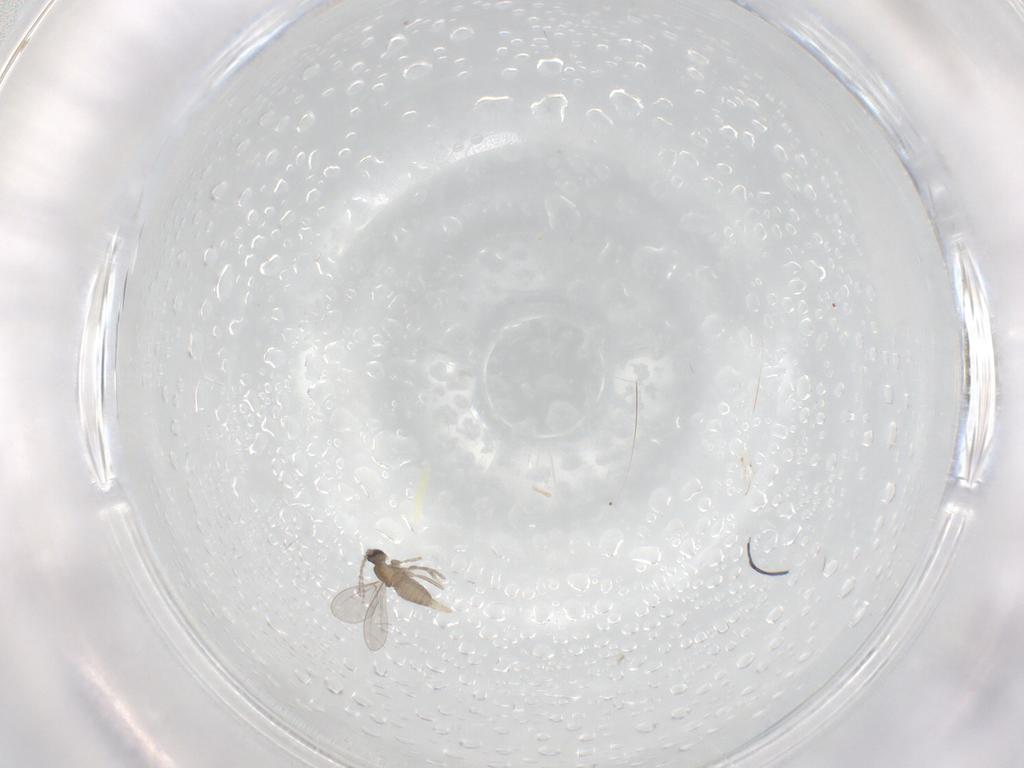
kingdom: Animalia
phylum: Arthropoda
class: Insecta
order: Diptera
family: Cecidomyiidae
